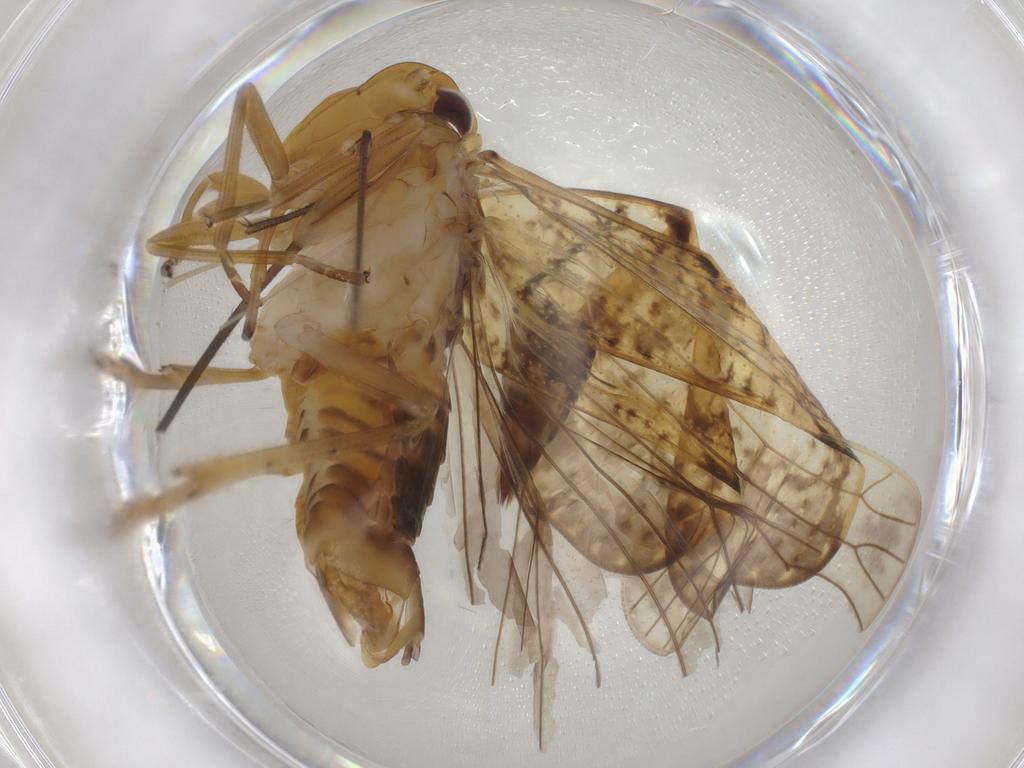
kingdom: Animalia
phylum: Arthropoda
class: Insecta
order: Hemiptera
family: Cicadellidae
